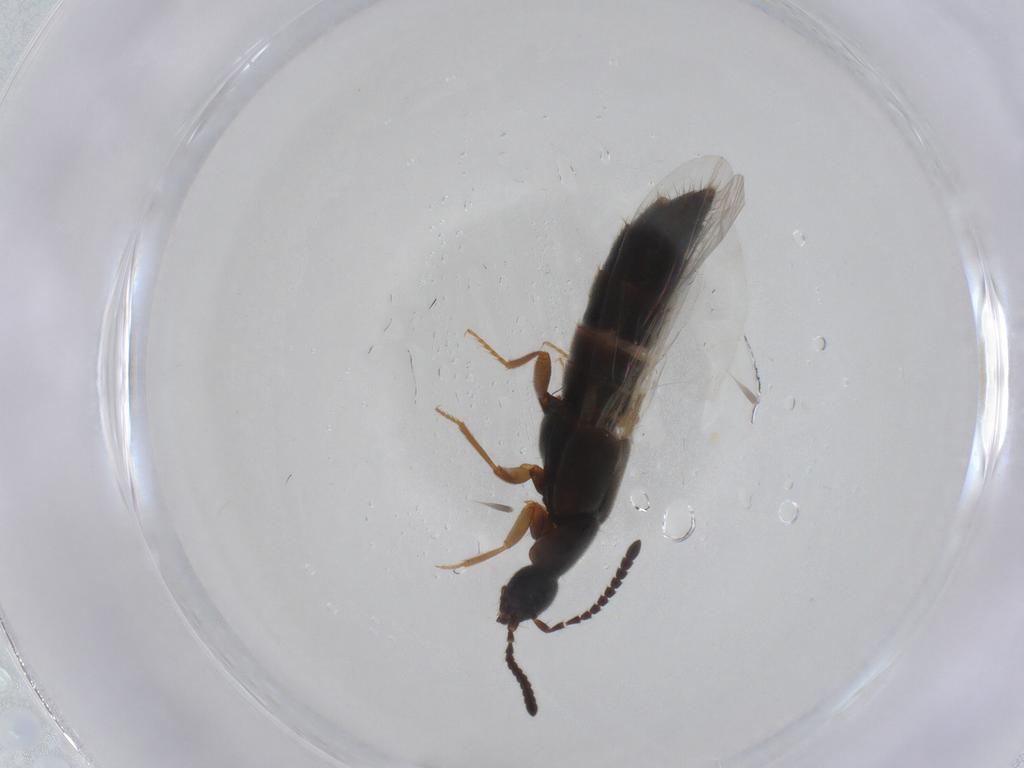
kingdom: Animalia
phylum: Arthropoda
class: Insecta
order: Coleoptera
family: Staphylinidae
